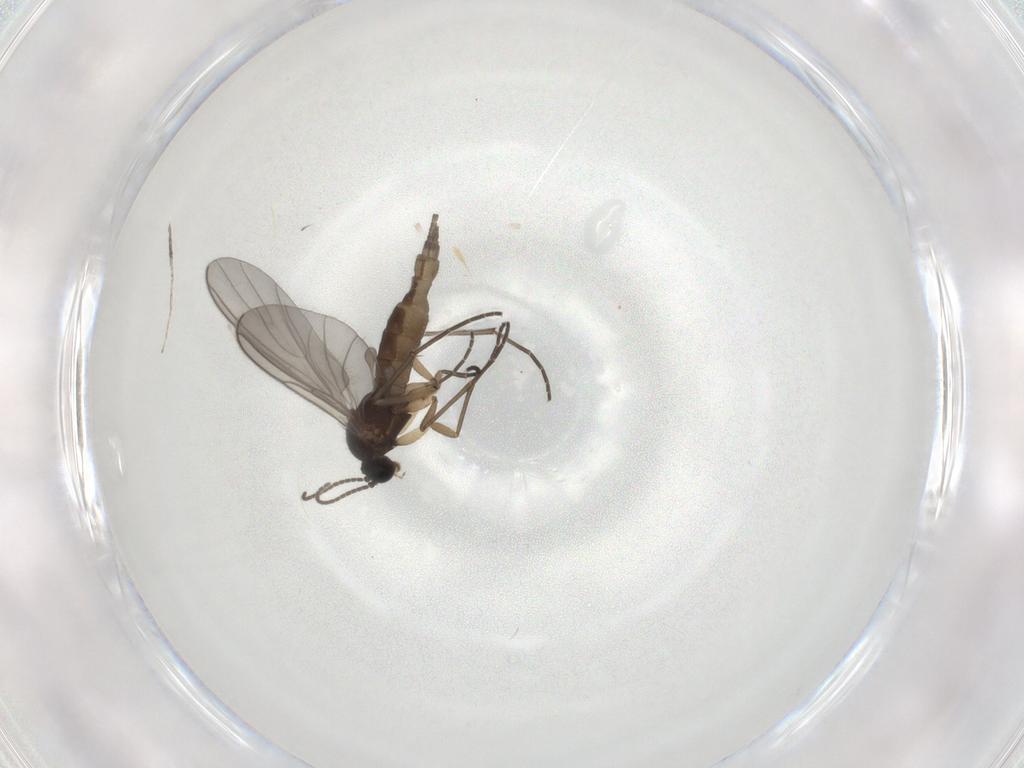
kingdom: Animalia
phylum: Arthropoda
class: Insecta
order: Diptera
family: Sciaridae
